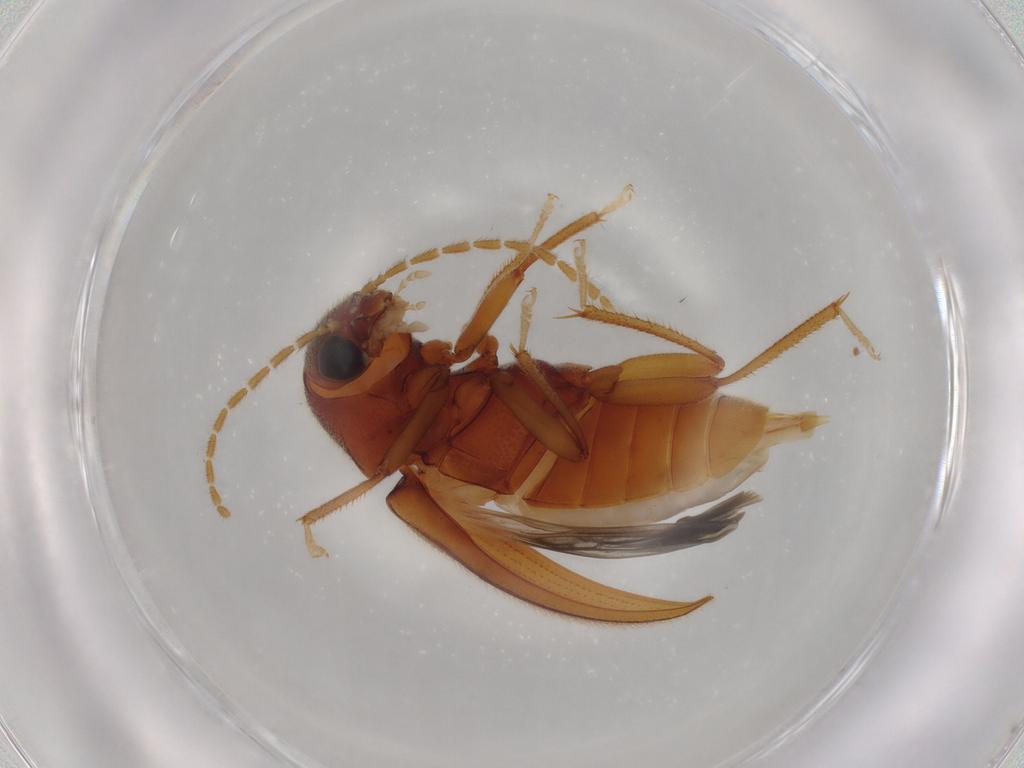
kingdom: Animalia
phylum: Arthropoda
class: Insecta
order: Coleoptera
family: Ptilodactylidae
